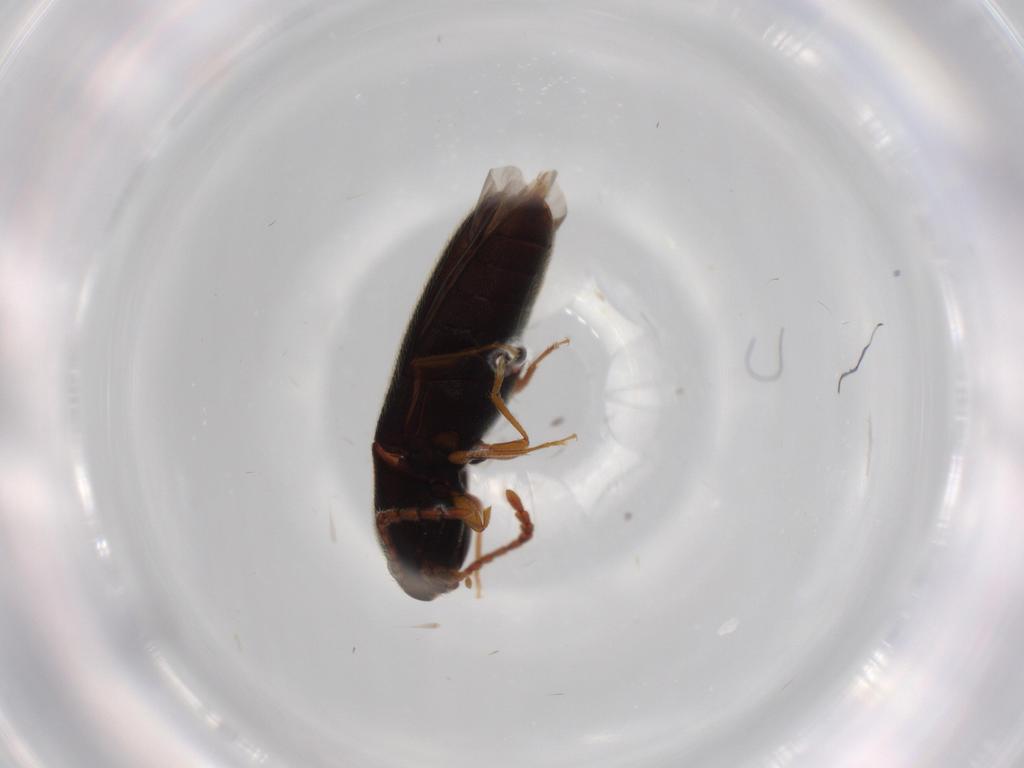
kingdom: Animalia
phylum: Arthropoda
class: Insecta
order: Coleoptera
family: Elateridae
